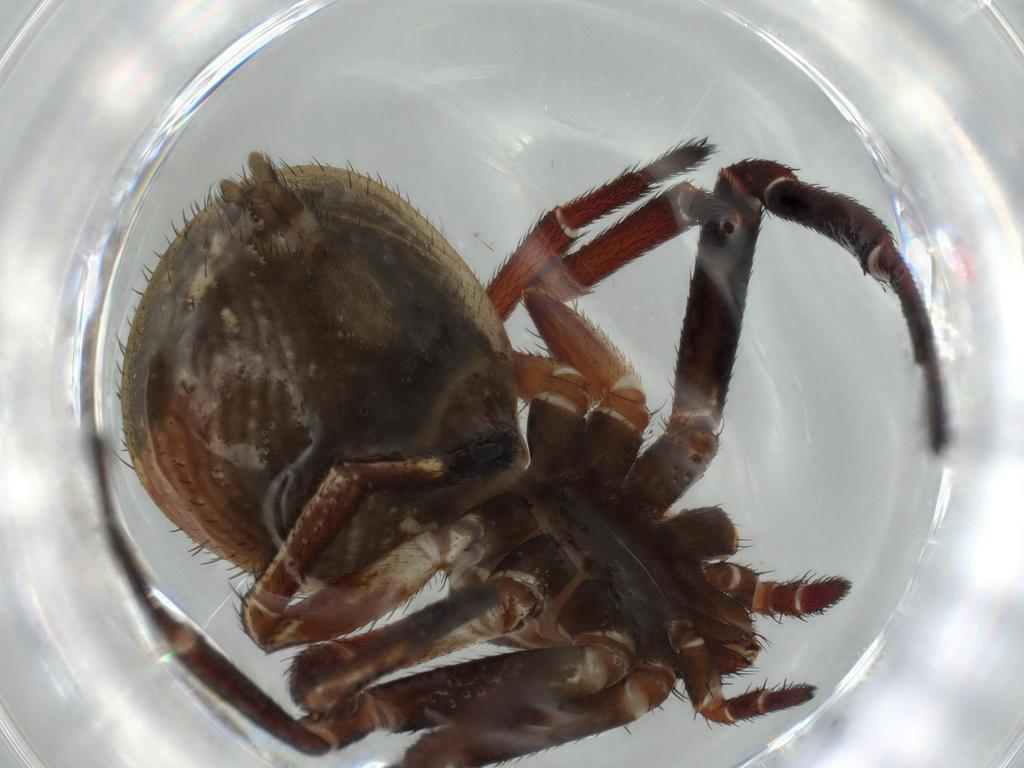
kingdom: Animalia
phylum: Arthropoda
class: Arachnida
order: Araneae
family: Thomisidae
